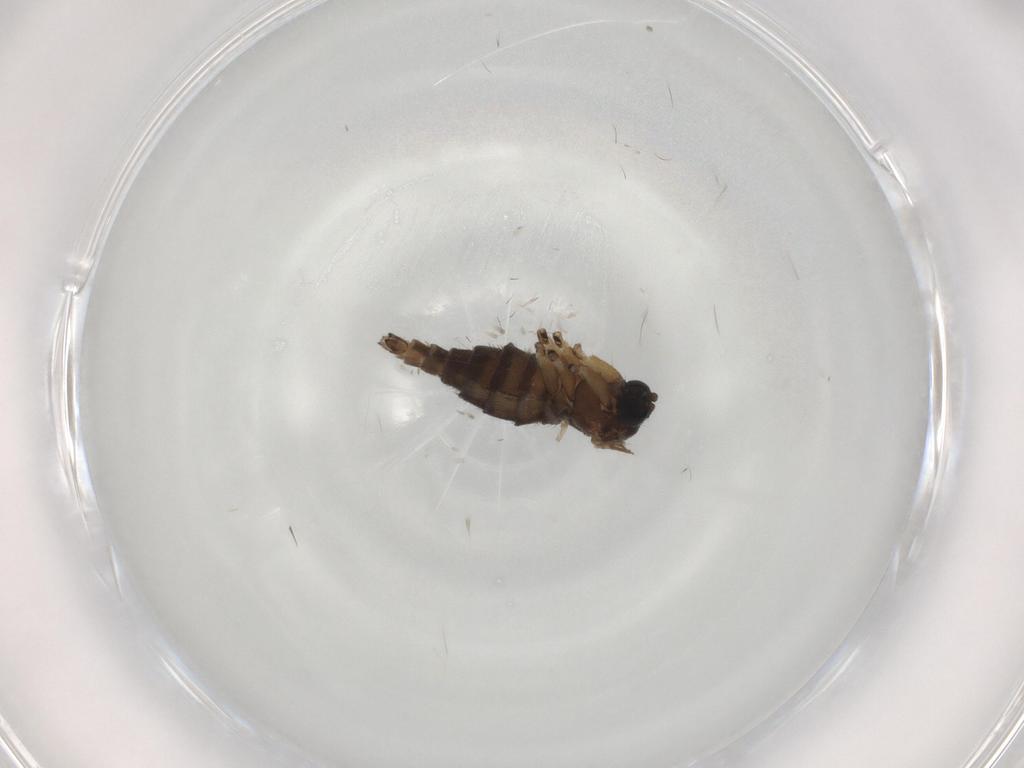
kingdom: Animalia
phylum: Arthropoda
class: Insecta
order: Diptera
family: Sciaridae
